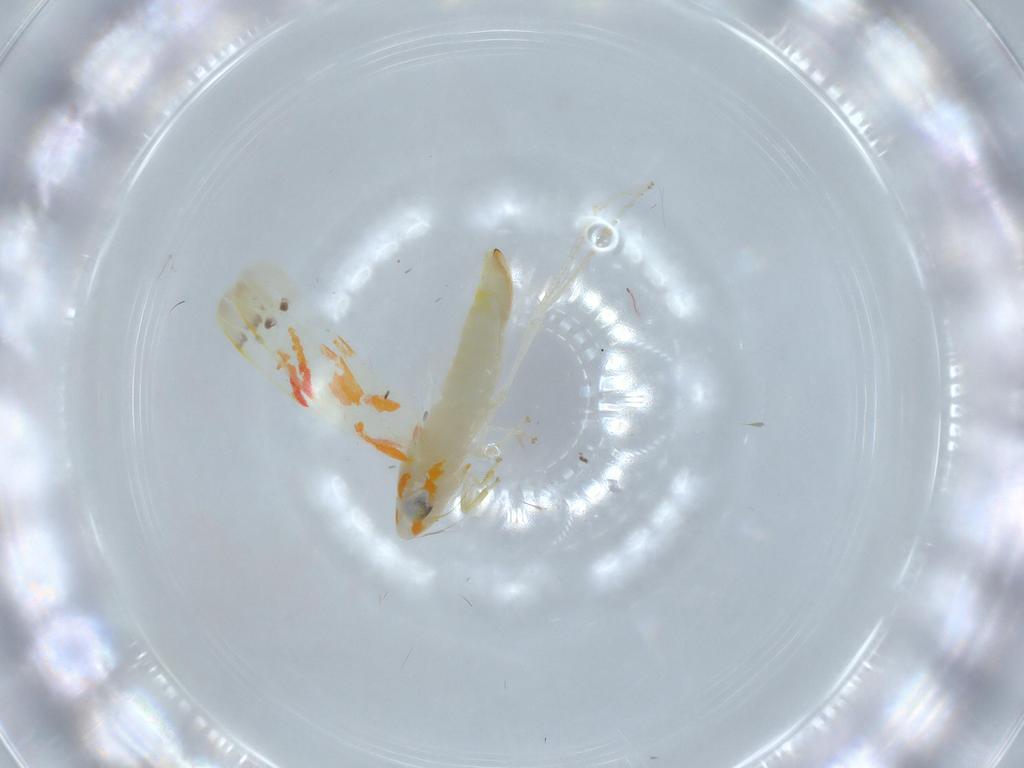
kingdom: Animalia
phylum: Arthropoda
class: Insecta
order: Hemiptera
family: Cicadellidae
